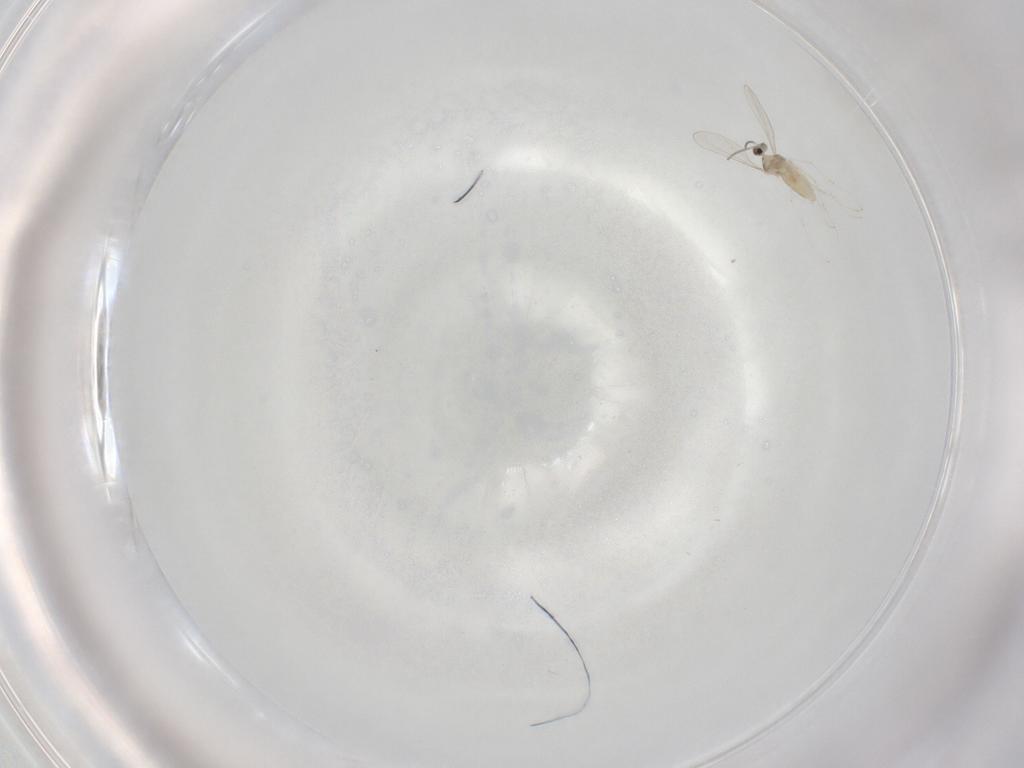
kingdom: Animalia
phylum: Arthropoda
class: Insecta
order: Diptera
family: Cecidomyiidae
